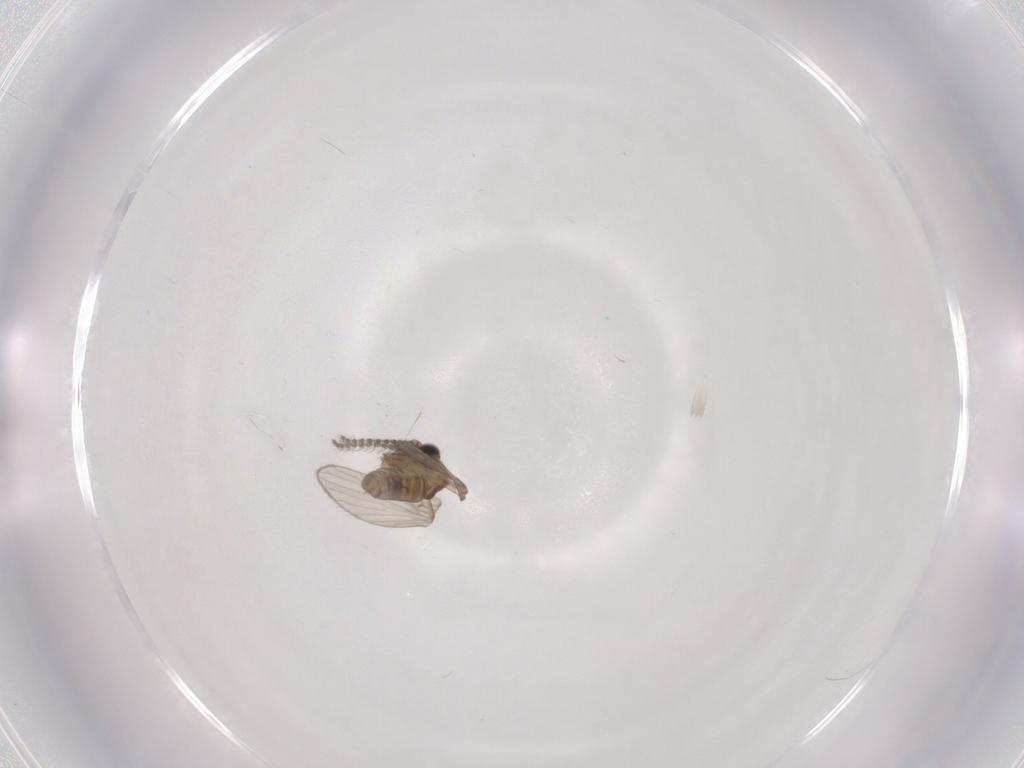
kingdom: Animalia
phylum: Arthropoda
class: Insecta
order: Diptera
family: Psychodidae
